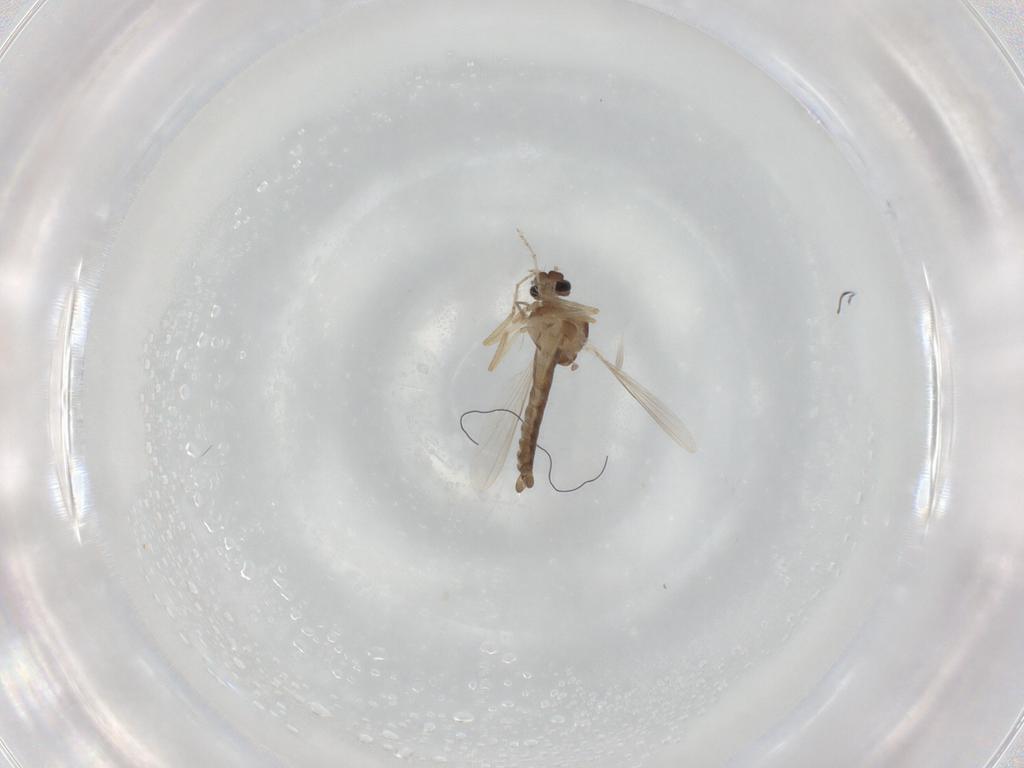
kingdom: Animalia
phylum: Arthropoda
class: Insecta
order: Diptera
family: Ceratopogonidae
